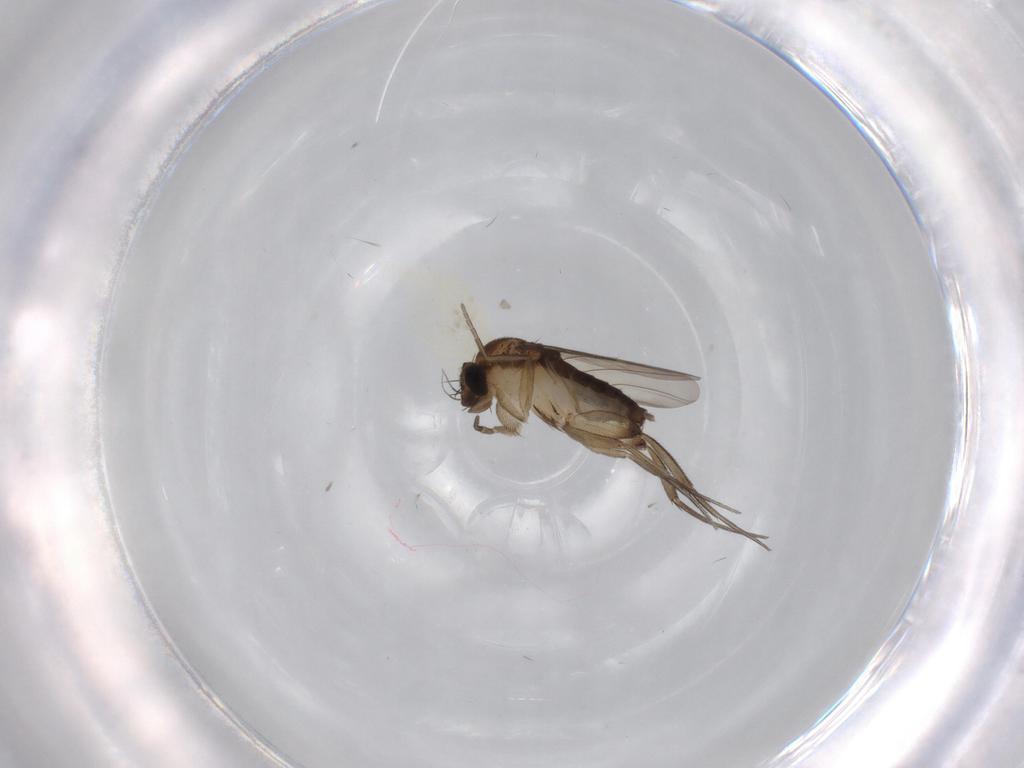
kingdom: Animalia
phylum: Arthropoda
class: Insecta
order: Diptera
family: Phoridae
